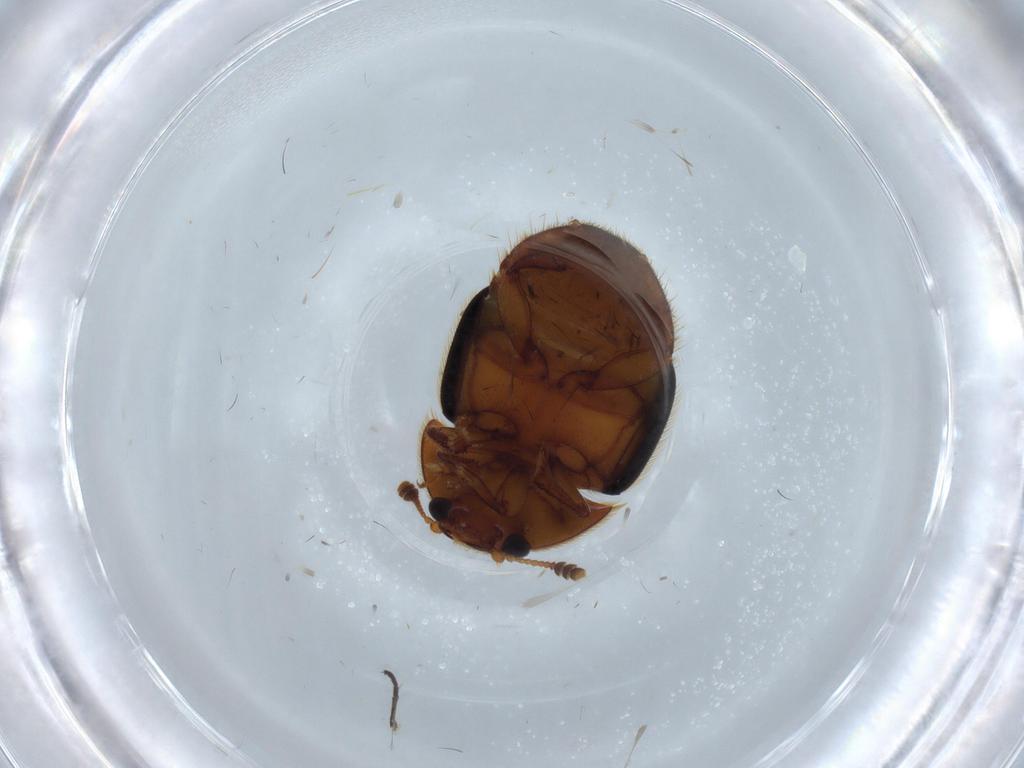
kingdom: Animalia
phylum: Arthropoda
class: Insecta
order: Coleoptera
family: Nitidulidae
